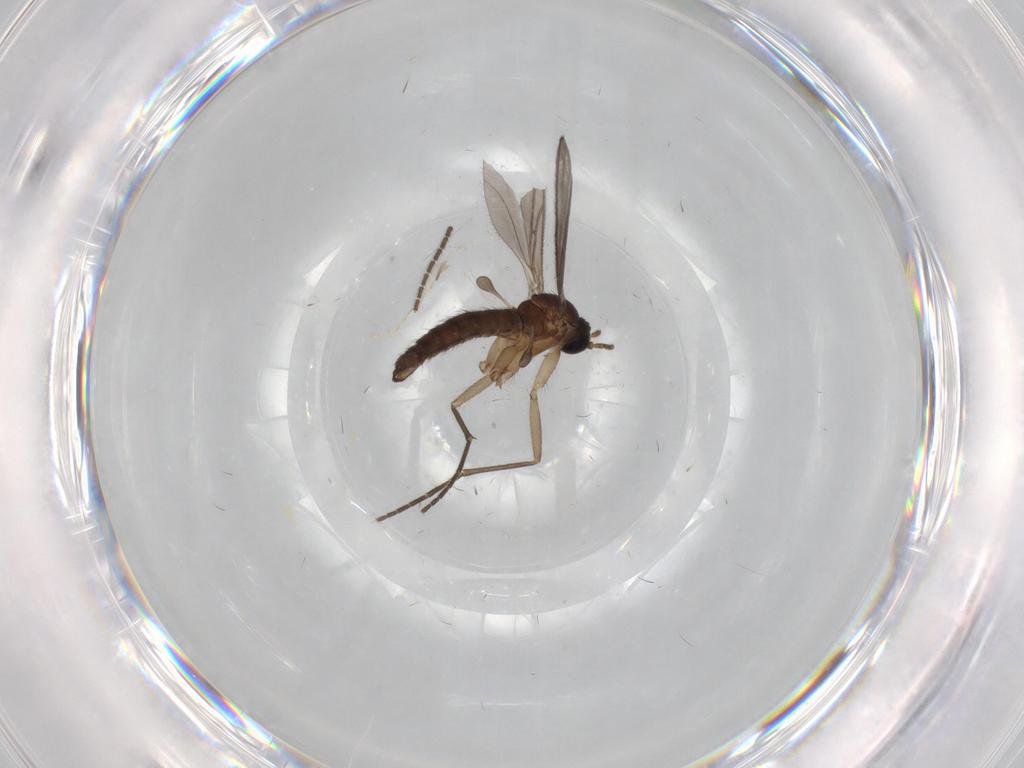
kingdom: Animalia
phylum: Arthropoda
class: Insecta
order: Diptera
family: Sciaridae
